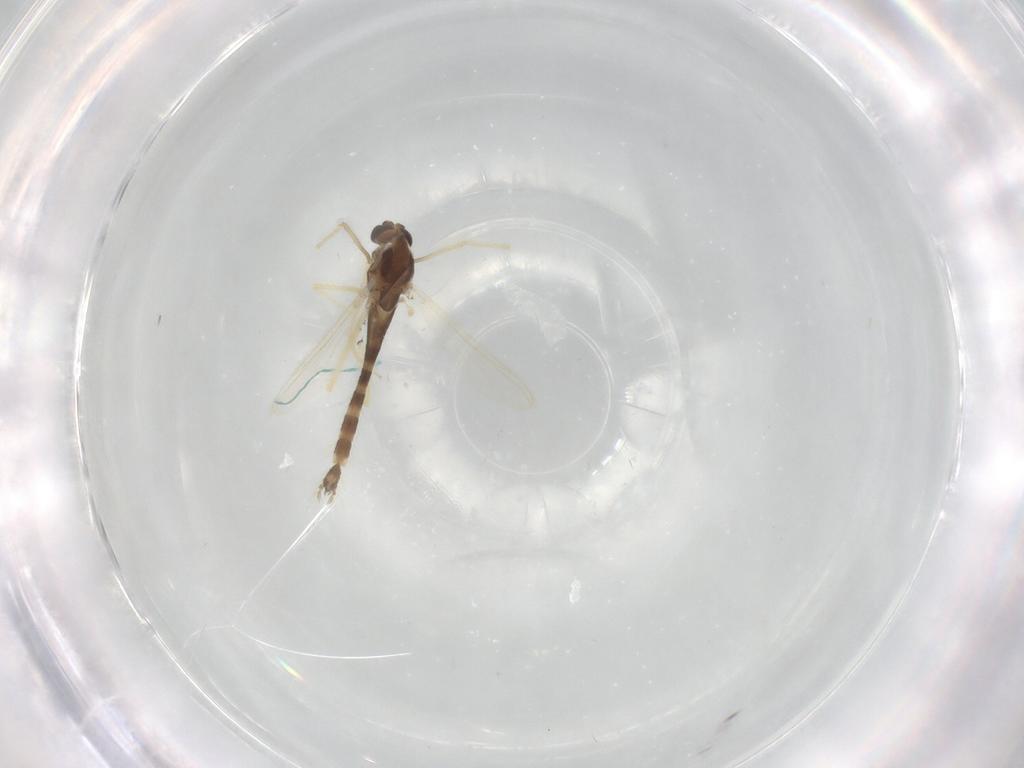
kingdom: Animalia
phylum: Arthropoda
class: Insecta
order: Diptera
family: Chironomidae
